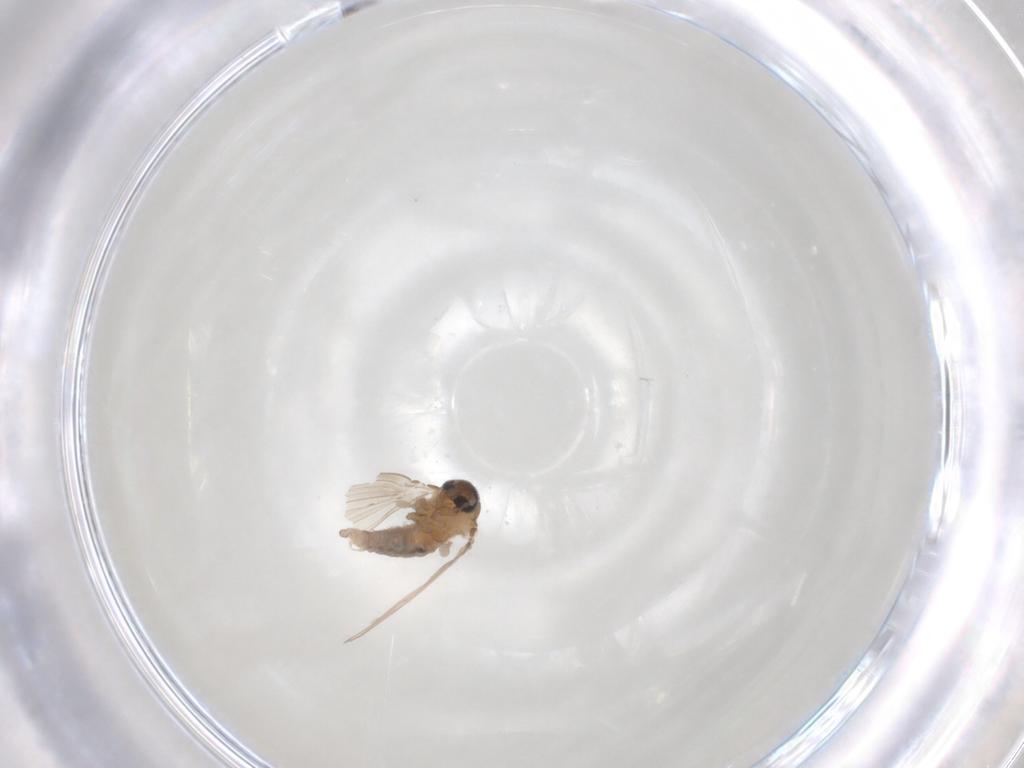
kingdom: Animalia
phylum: Arthropoda
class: Insecta
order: Diptera
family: Psychodidae
